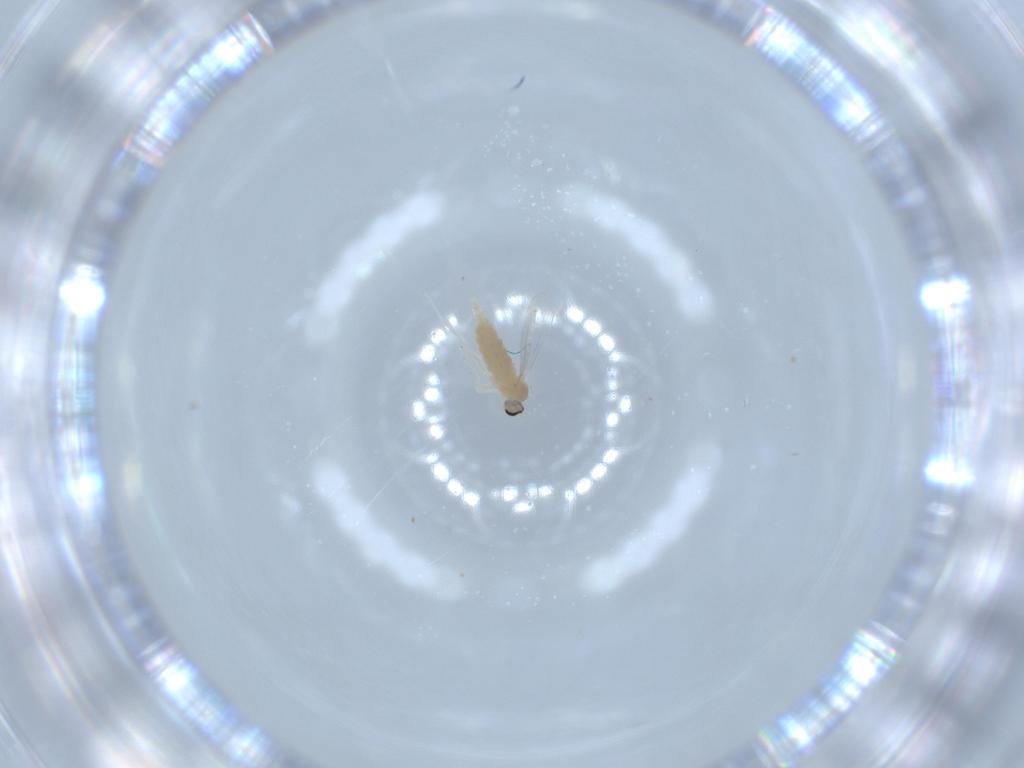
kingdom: Animalia
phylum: Arthropoda
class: Insecta
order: Diptera
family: Cecidomyiidae
